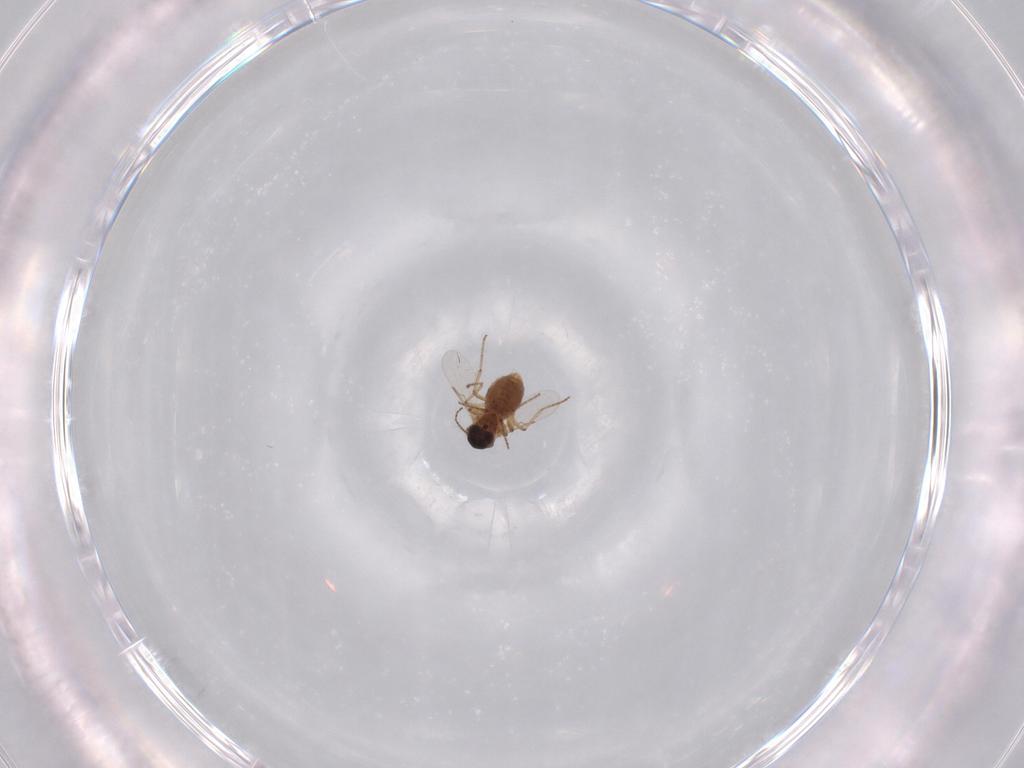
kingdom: Animalia
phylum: Arthropoda
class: Insecta
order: Diptera
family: Ceratopogonidae
